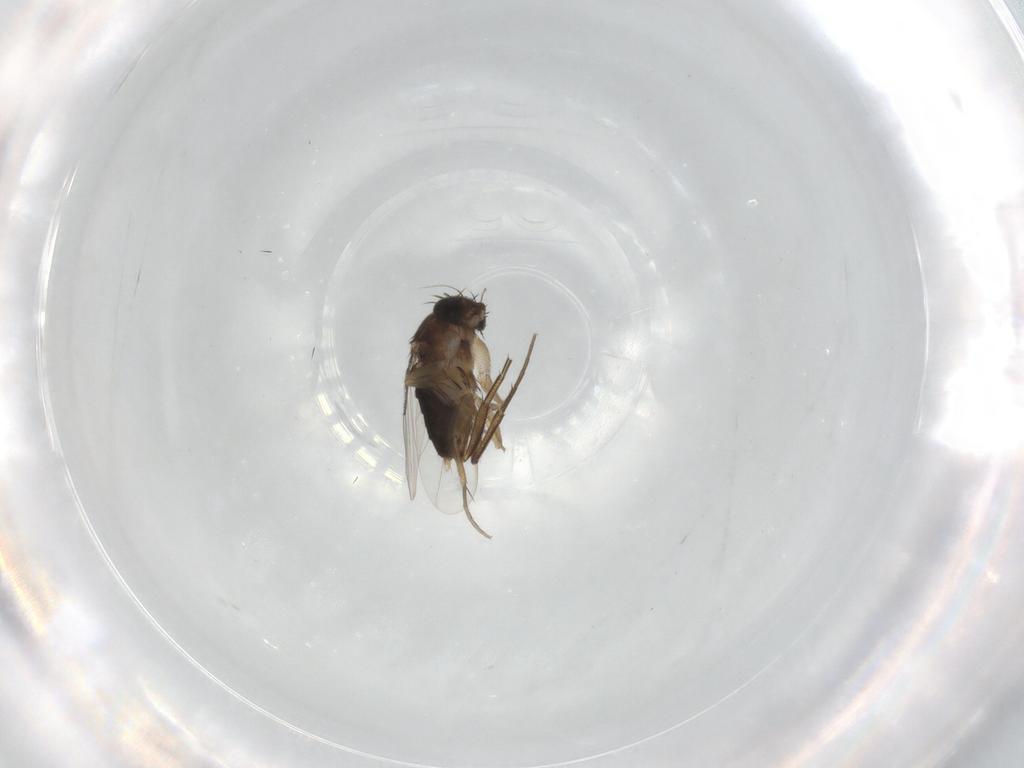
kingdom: Animalia
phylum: Arthropoda
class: Insecta
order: Diptera
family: Phoridae
